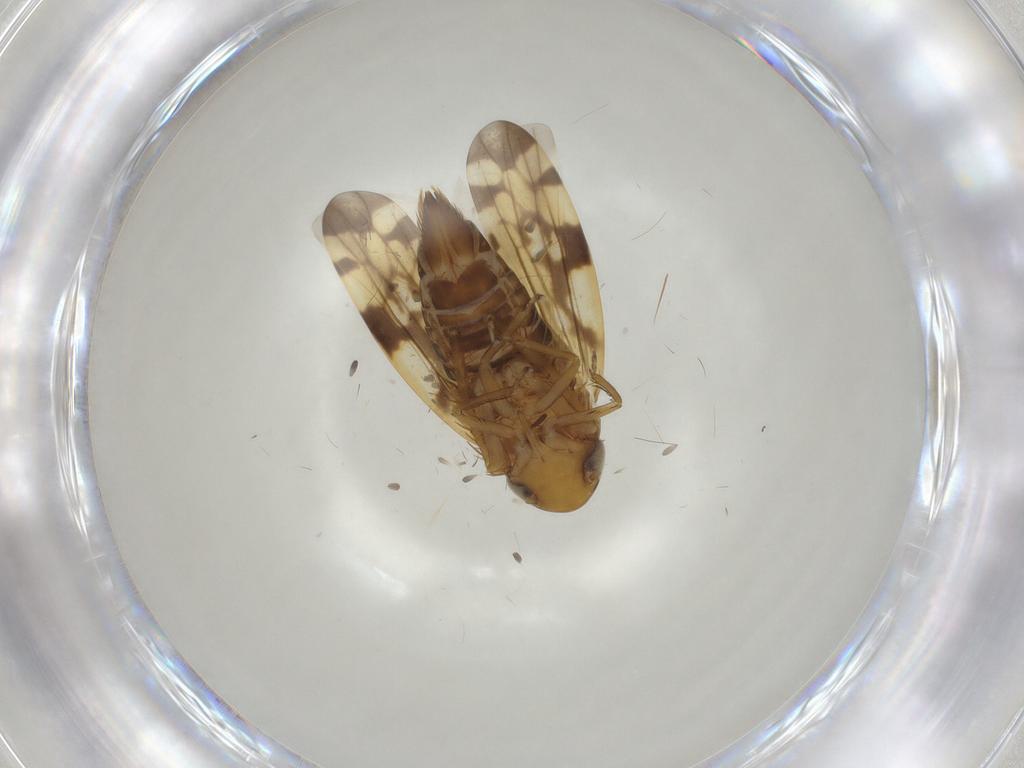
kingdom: Animalia
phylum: Arthropoda
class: Insecta
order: Hemiptera
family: Cicadellidae
